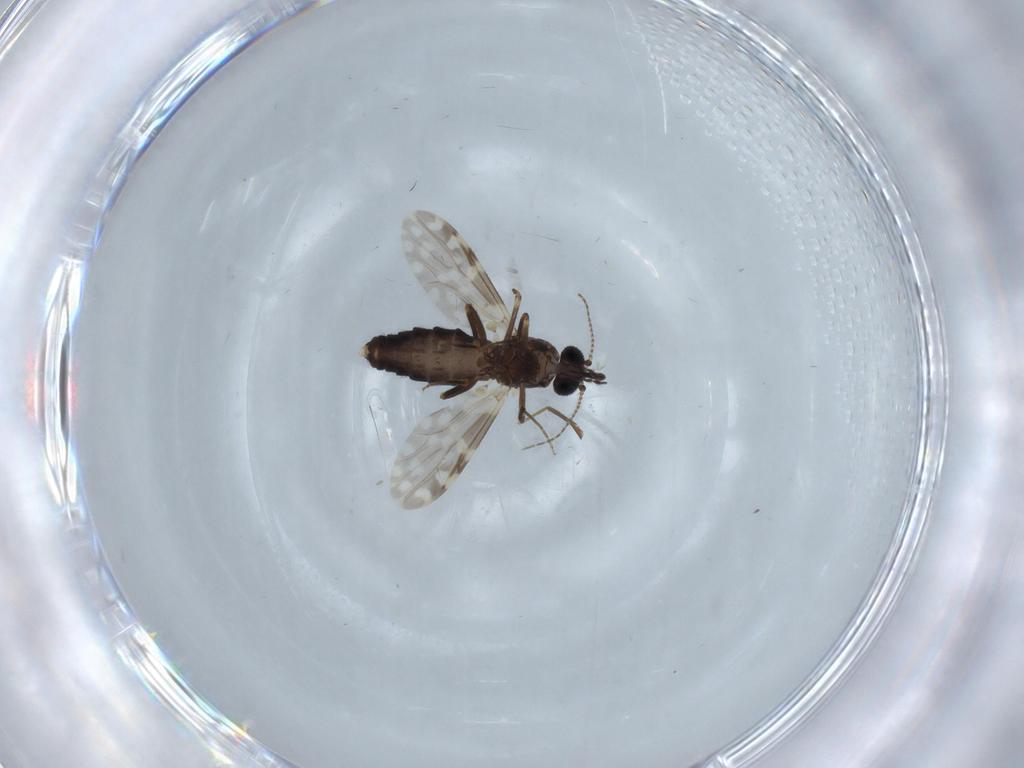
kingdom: Animalia
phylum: Arthropoda
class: Insecta
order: Diptera
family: Ceratopogonidae
